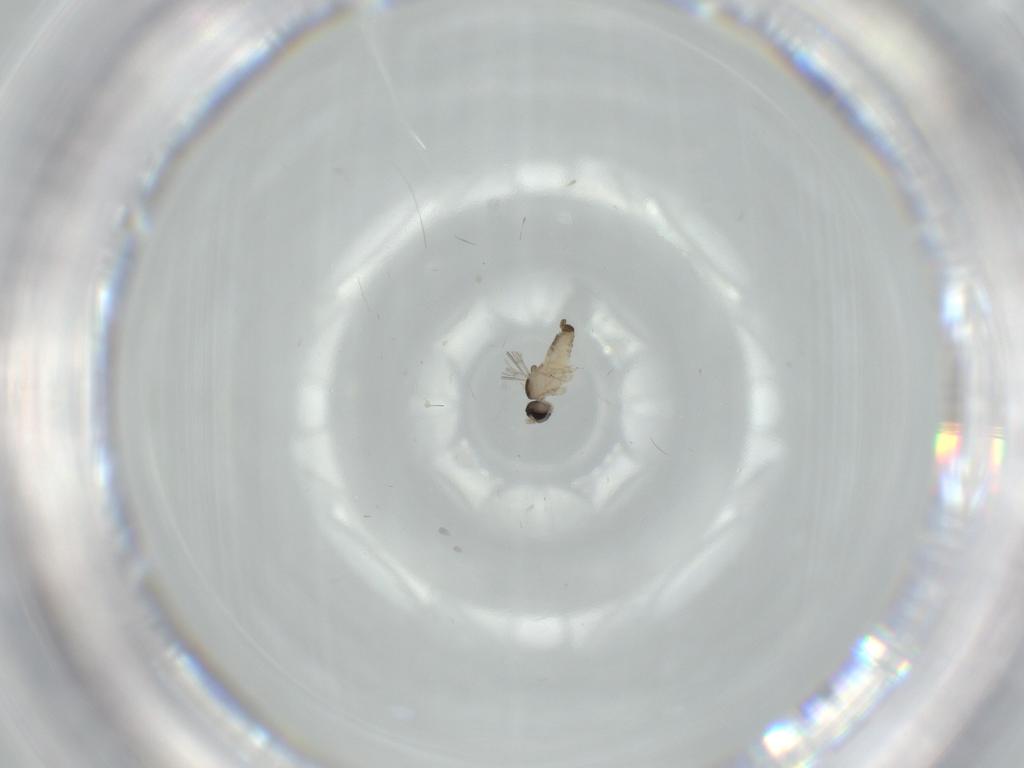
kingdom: Animalia
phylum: Arthropoda
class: Insecta
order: Diptera
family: Cecidomyiidae
